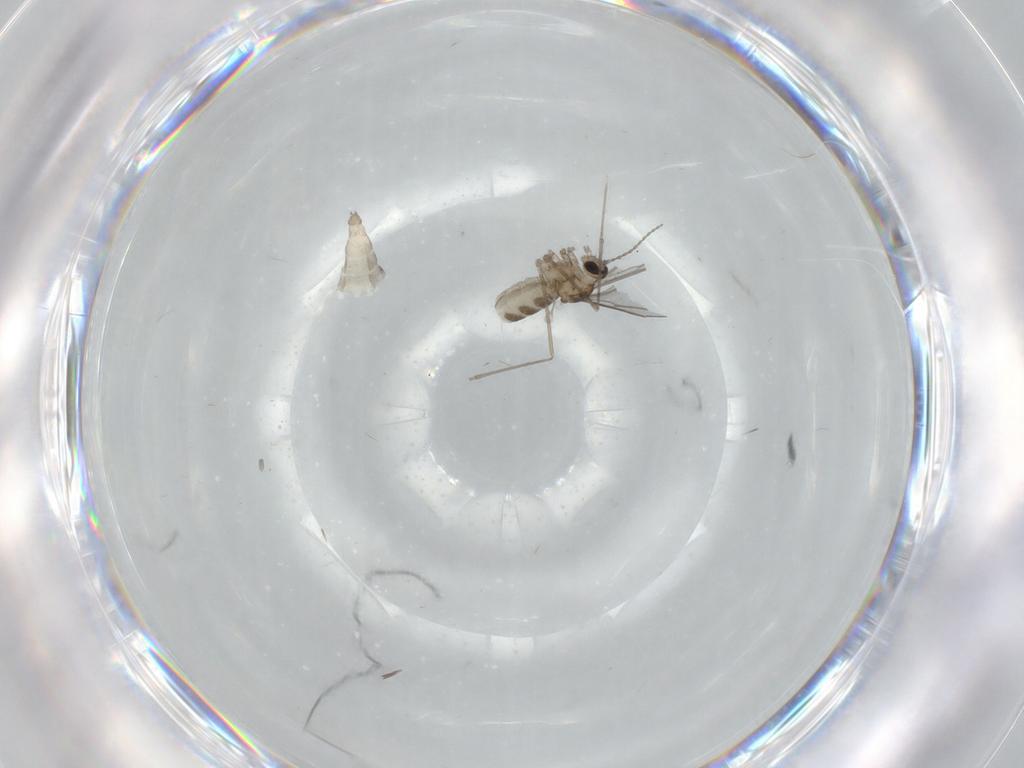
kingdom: Animalia
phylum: Arthropoda
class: Insecta
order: Diptera
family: Cecidomyiidae
